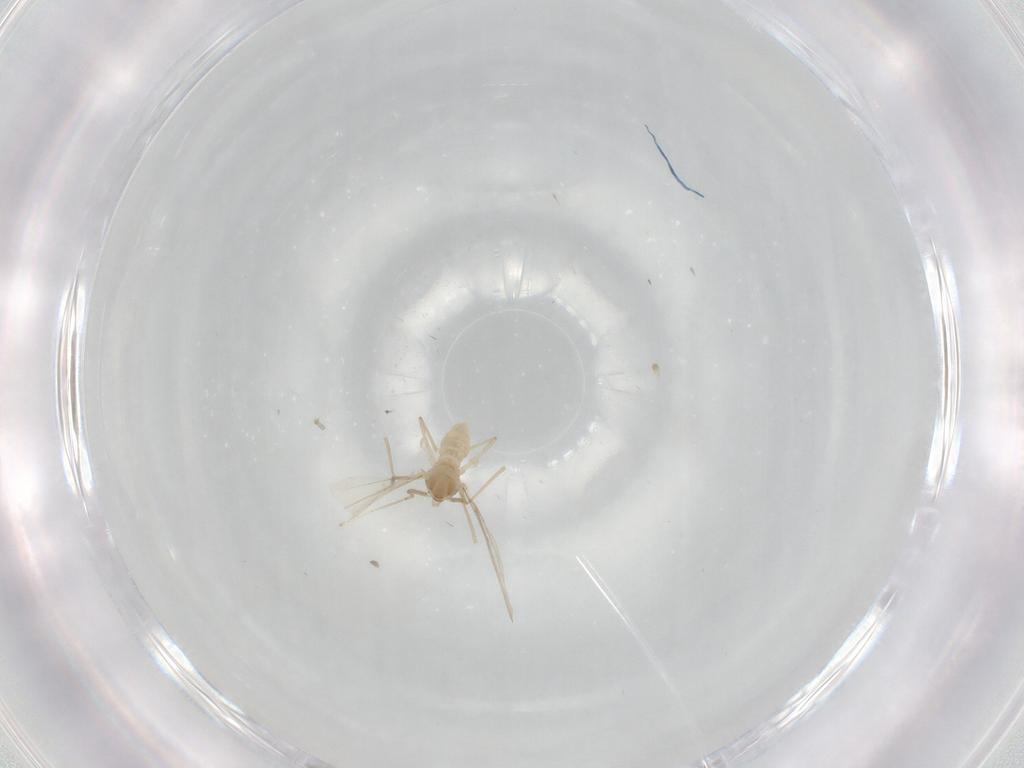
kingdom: Animalia
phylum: Arthropoda
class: Insecta
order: Diptera
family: Cecidomyiidae
